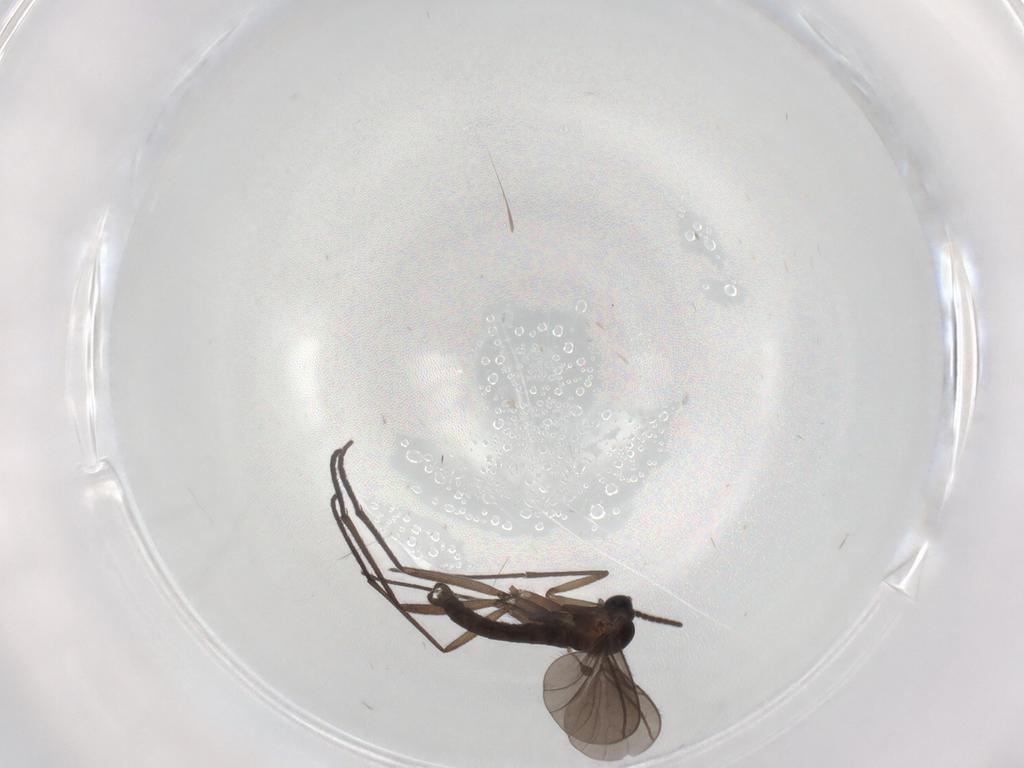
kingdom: Animalia
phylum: Arthropoda
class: Insecta
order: Diptera
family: Sciaridae
